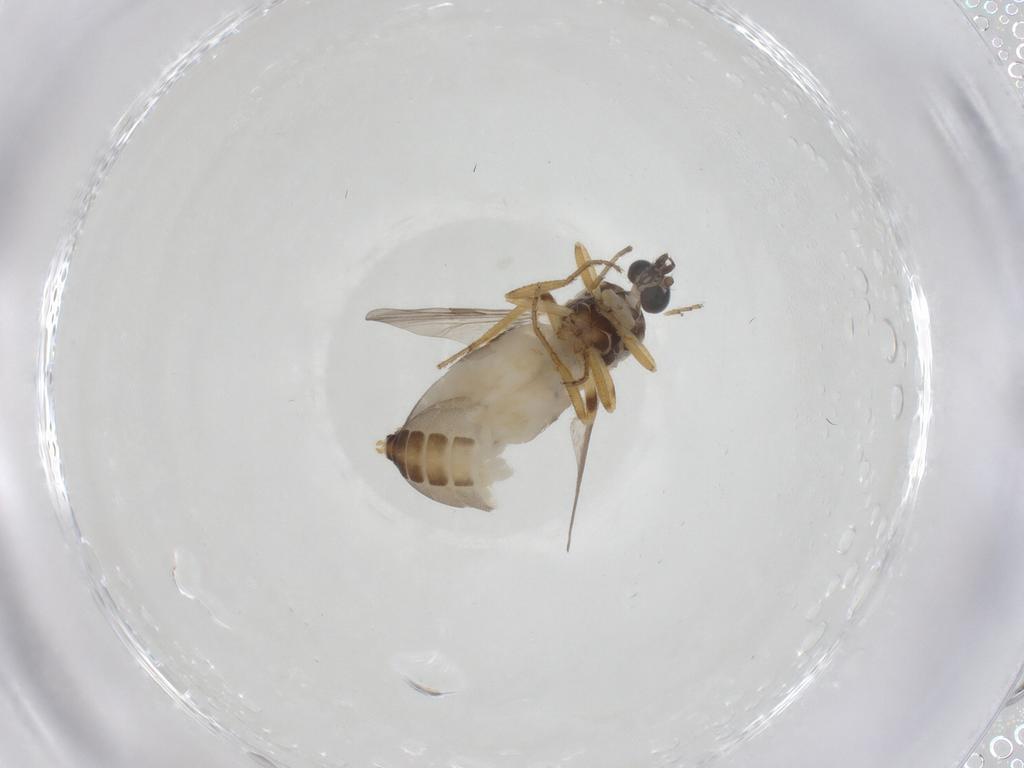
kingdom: Animalia
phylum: Arthropoda
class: Insecta
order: Diptera
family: Ceratopogonidae
